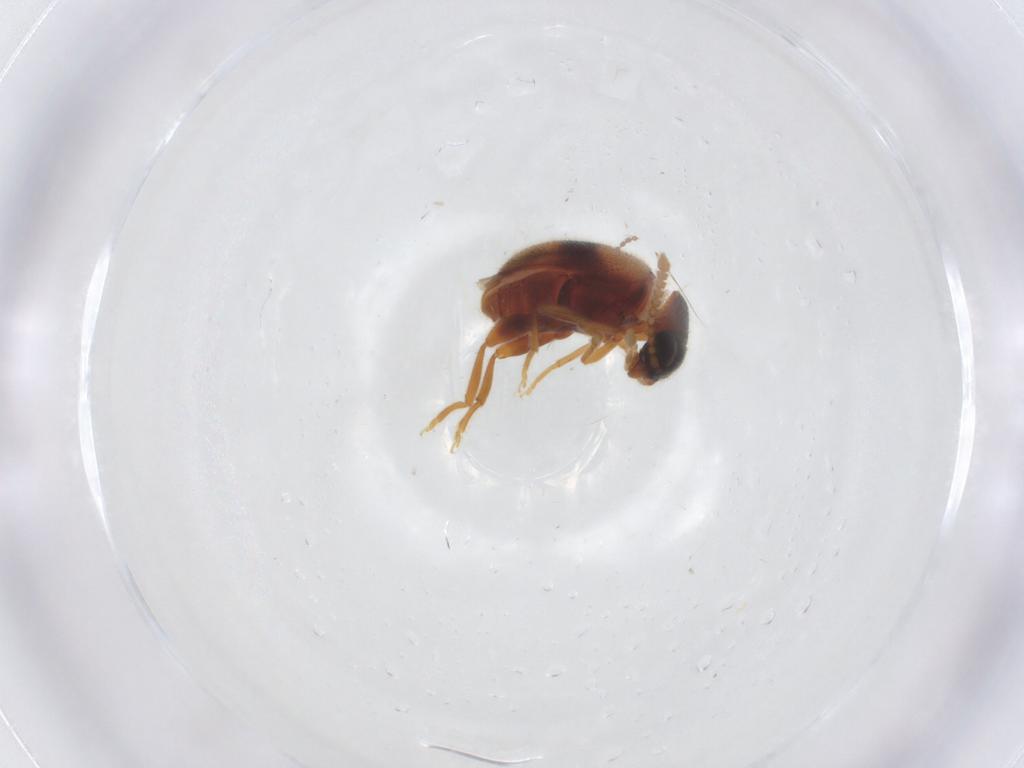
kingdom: Animalia
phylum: Arthropoda
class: Insecta
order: Coleoptera
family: Aderidae
